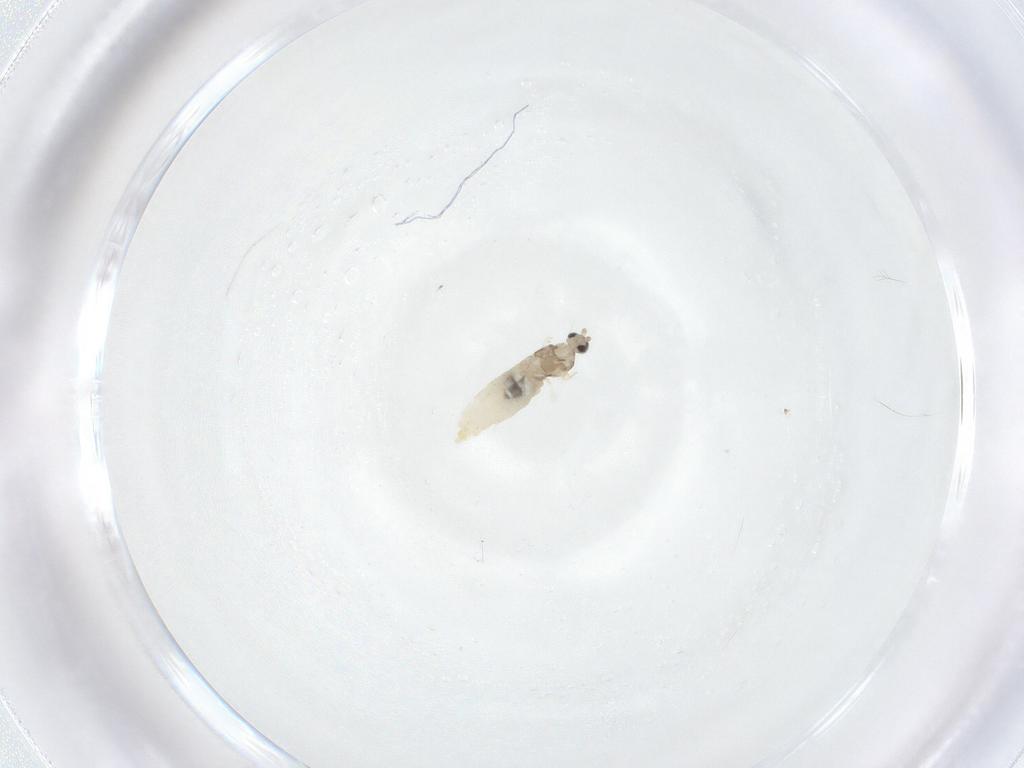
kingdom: Animalia
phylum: Arthropoda
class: Insecta
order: Diptera
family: Cecidomyiidae
